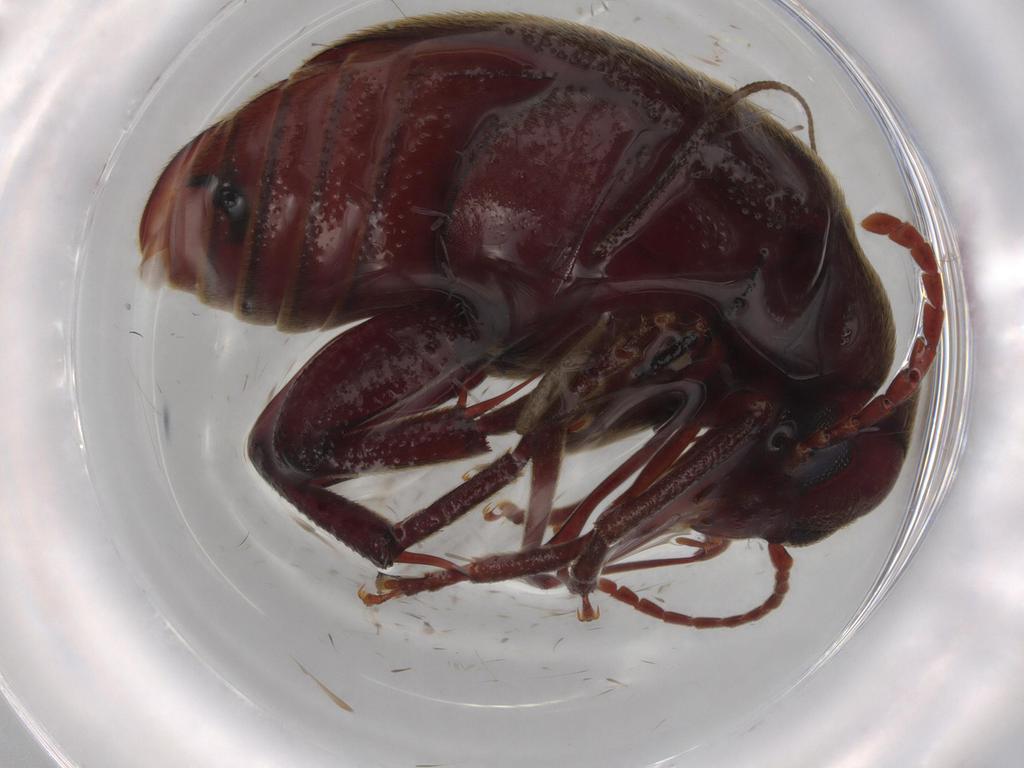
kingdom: Animalia
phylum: Arthropoda
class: Insecta
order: Coleoptera
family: Chrysomelidae
